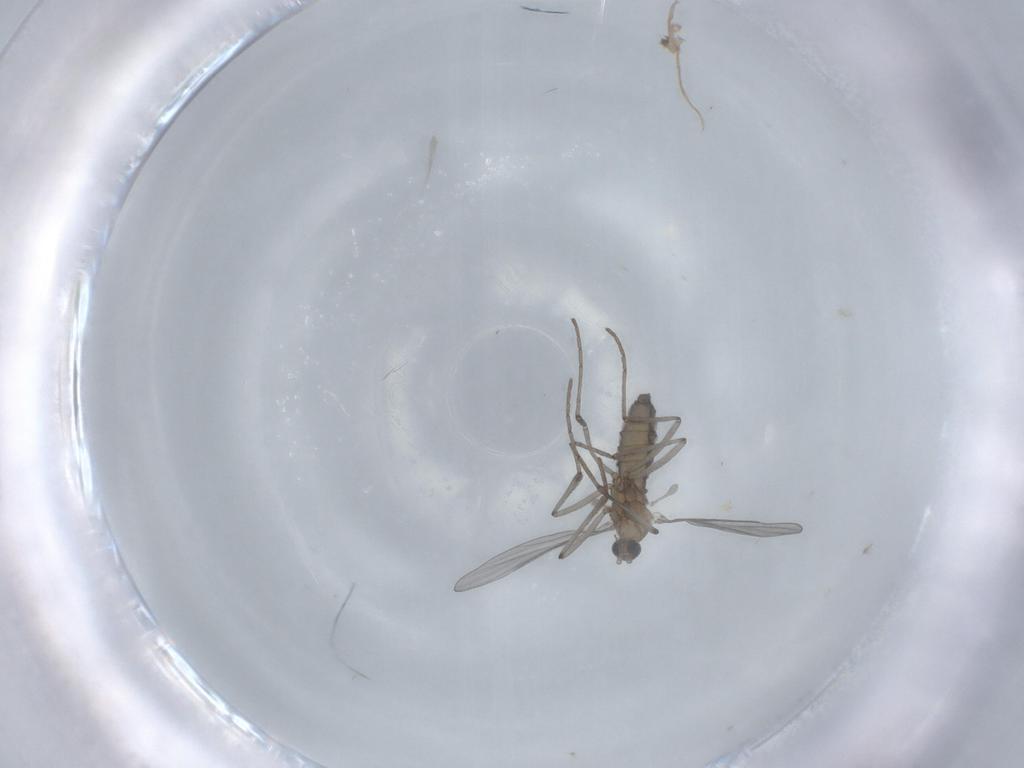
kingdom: Animalia
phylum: Arthropoda
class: Insecta
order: Diptera
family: Cecidomyiidae
